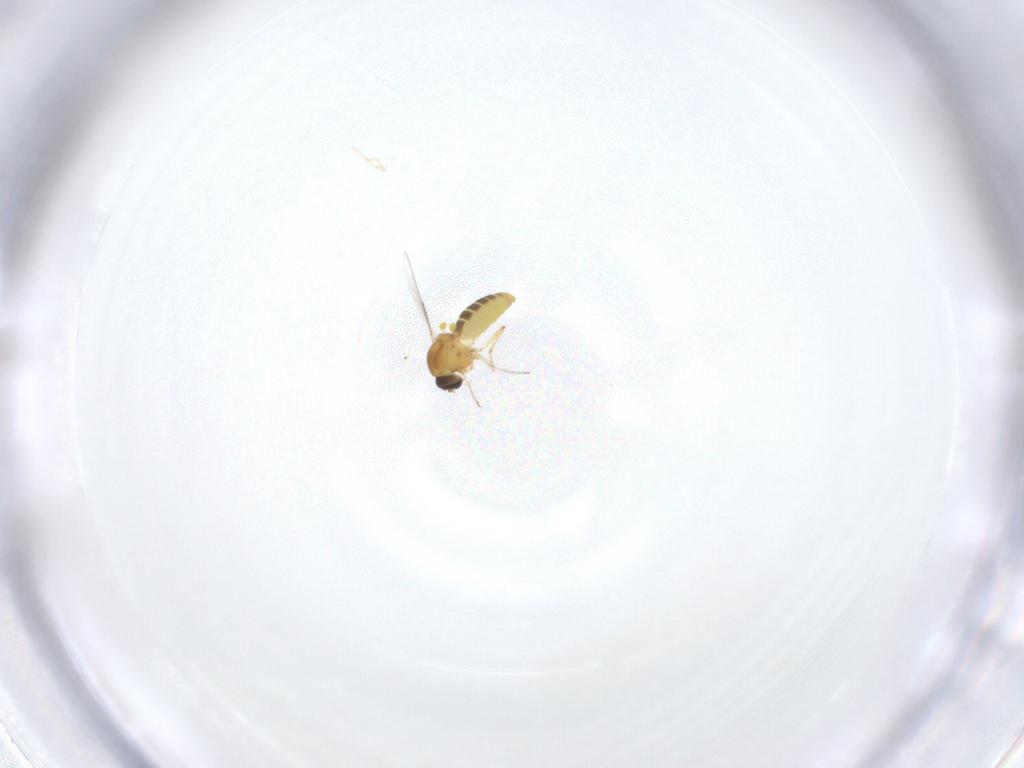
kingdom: Animalia
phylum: Arthropoda
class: Insecta
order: Diptera
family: Ceratopogonidae
